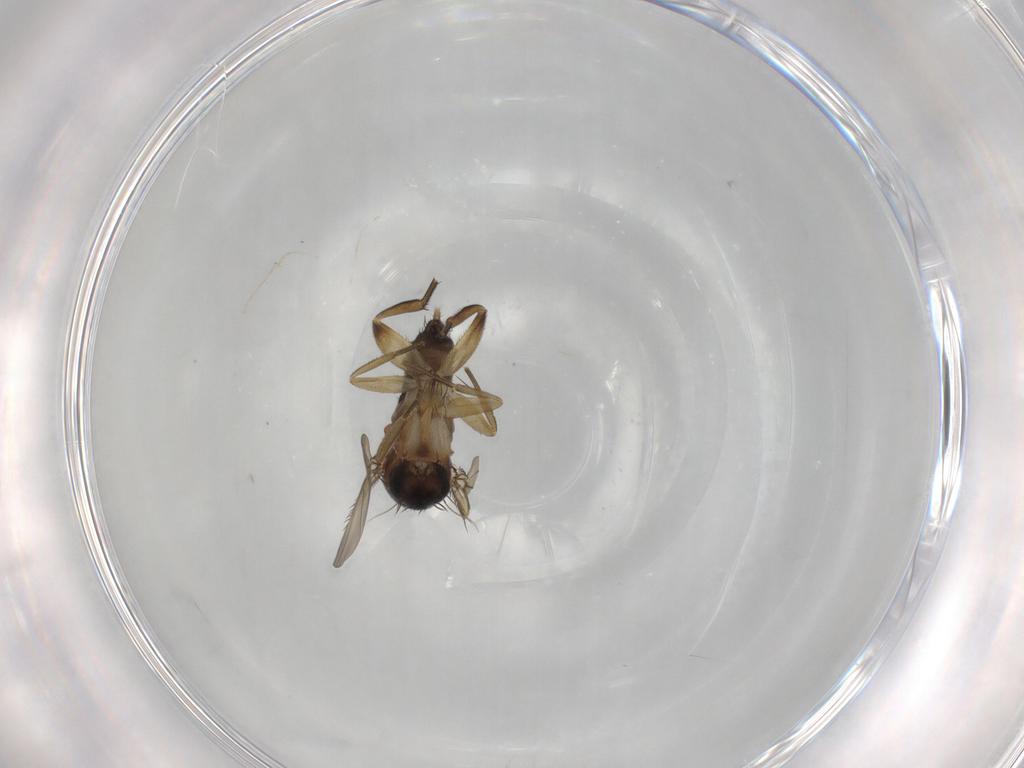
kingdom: Animalia
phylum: Arthropoda
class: Insecta
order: Diptera
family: Phoridae
